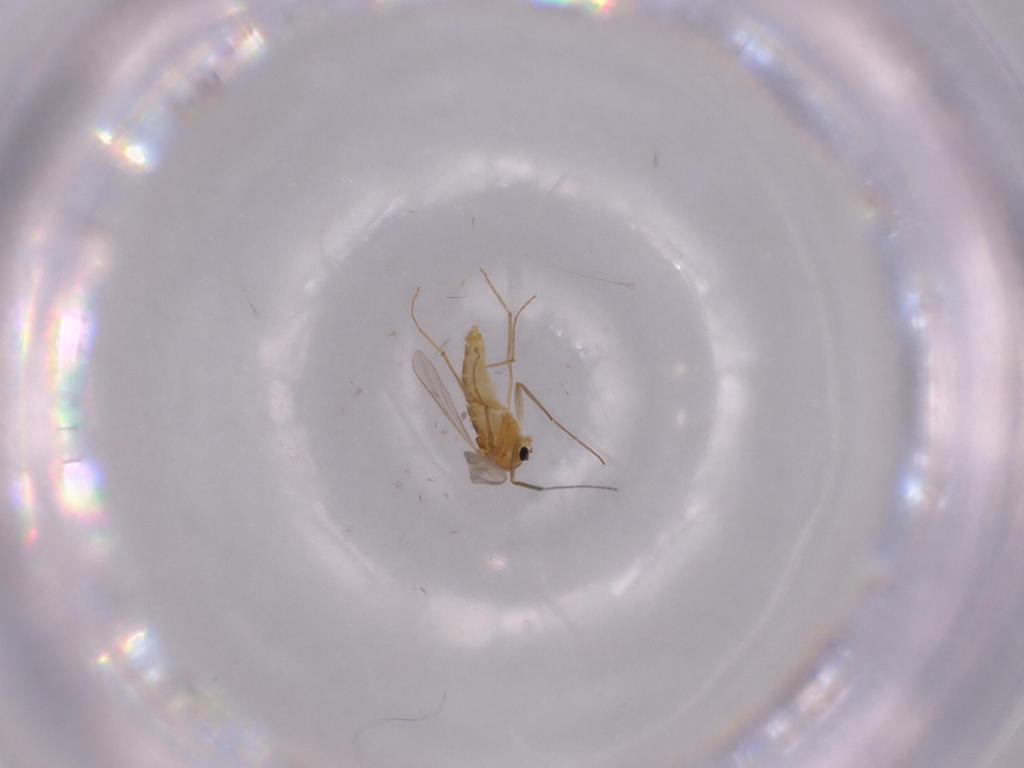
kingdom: Animalia
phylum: Arthropoda
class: Insecta
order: Diptera
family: Chironomidae
